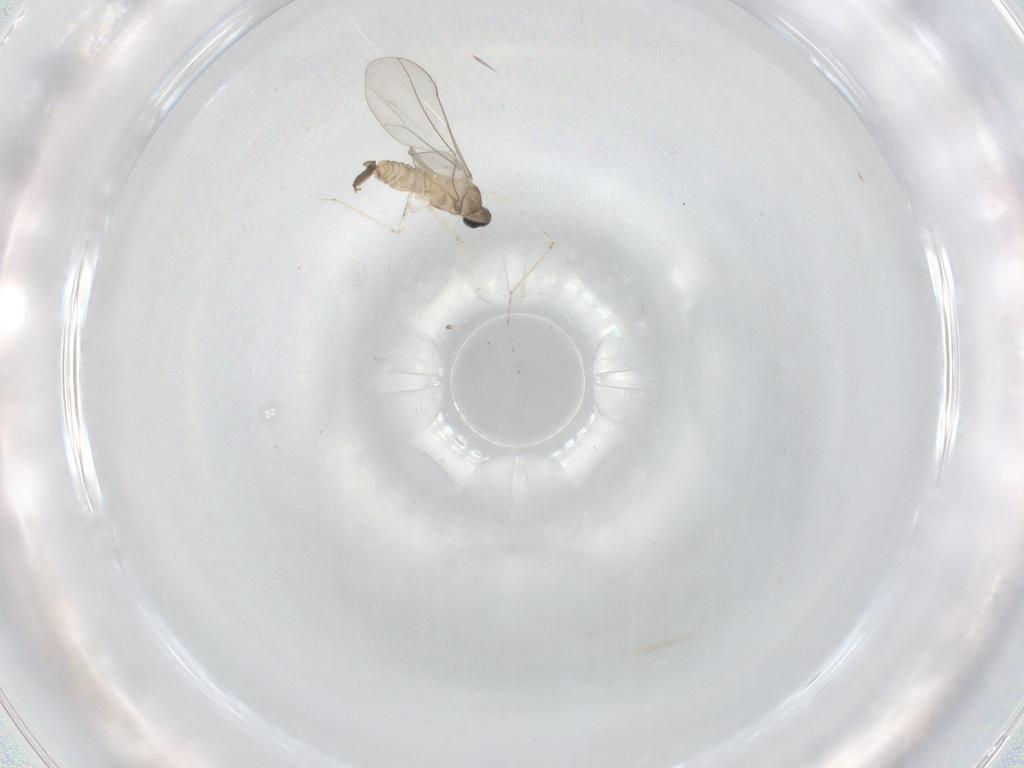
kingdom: Animalia
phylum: Arthropoda
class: Insecta
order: Diptera
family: Cecidomyiidae
